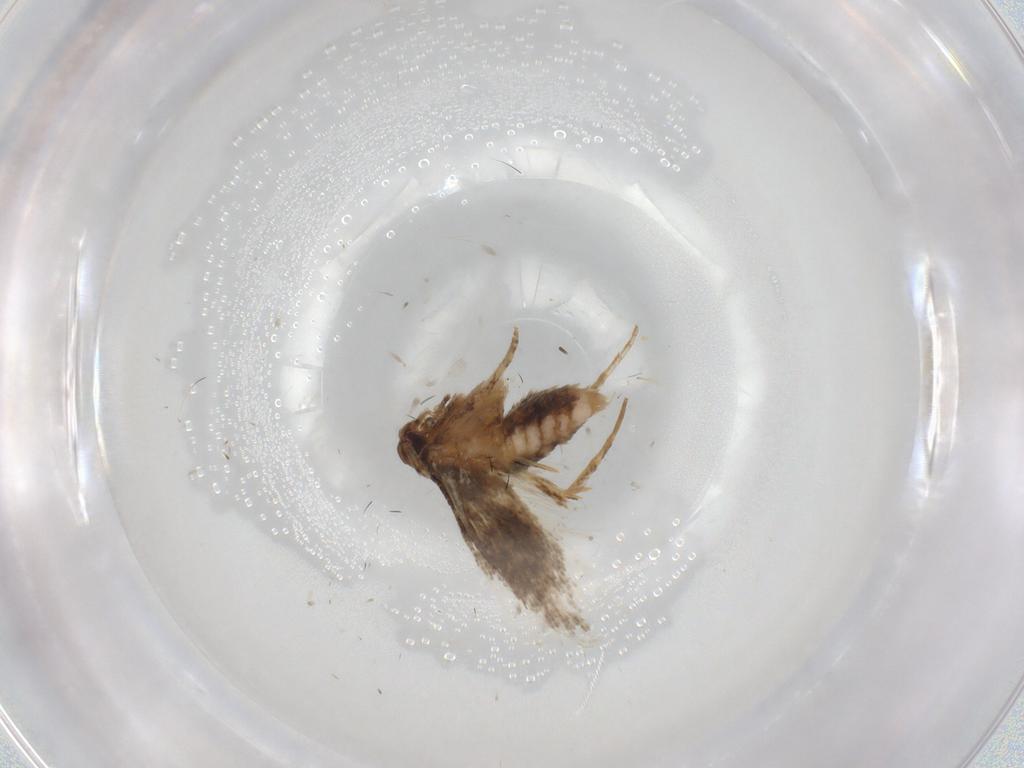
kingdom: Animalia
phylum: Arthropoda
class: Insecta
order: Lepidoptera
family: Cosmopterigidae
